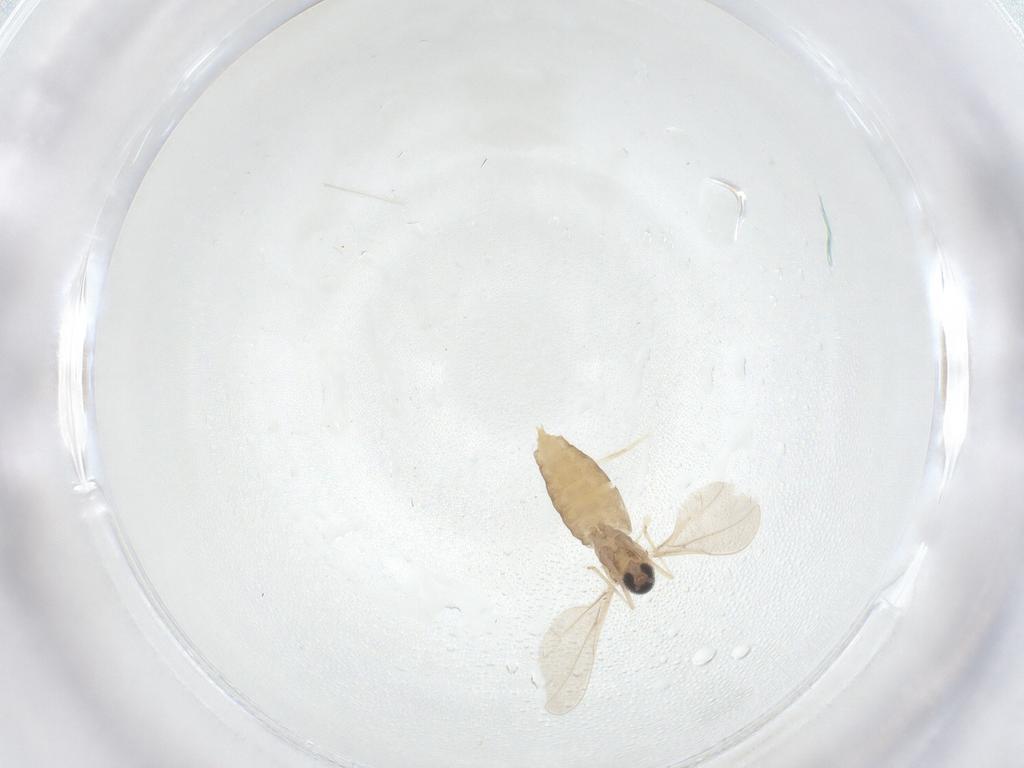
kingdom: Animalia
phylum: Arthropoda
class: Insecta
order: Diptera
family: Cecidomyiidae
